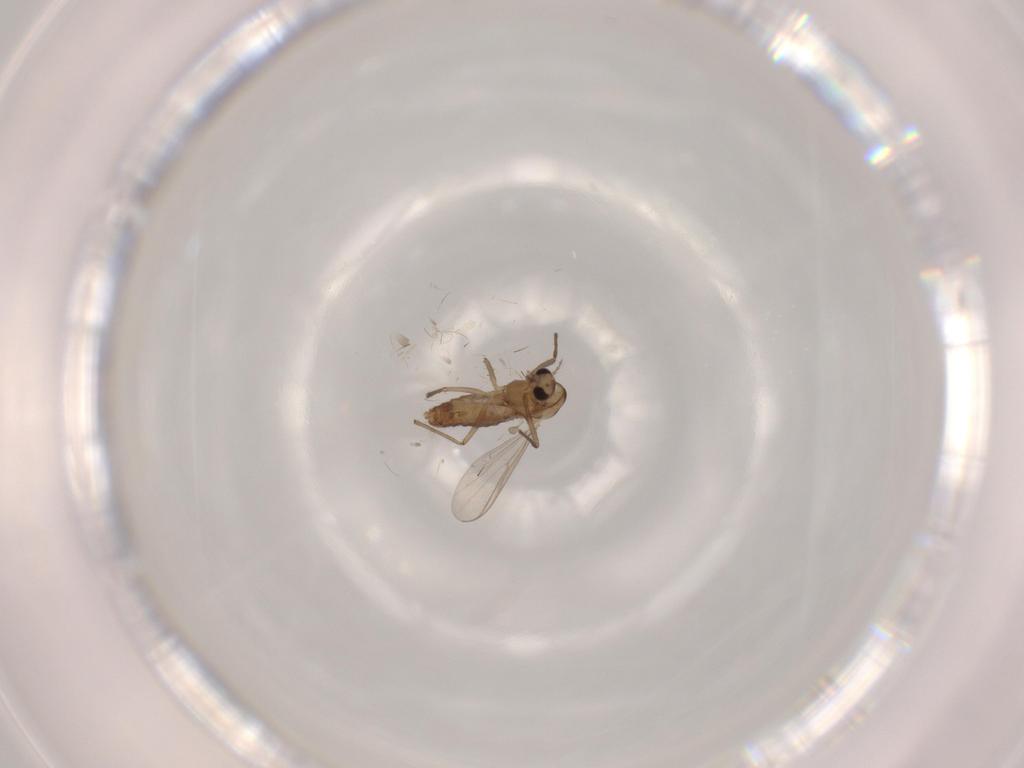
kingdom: Animalia
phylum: Arthropoda
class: Insecta
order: Diptera
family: Chironomidae
